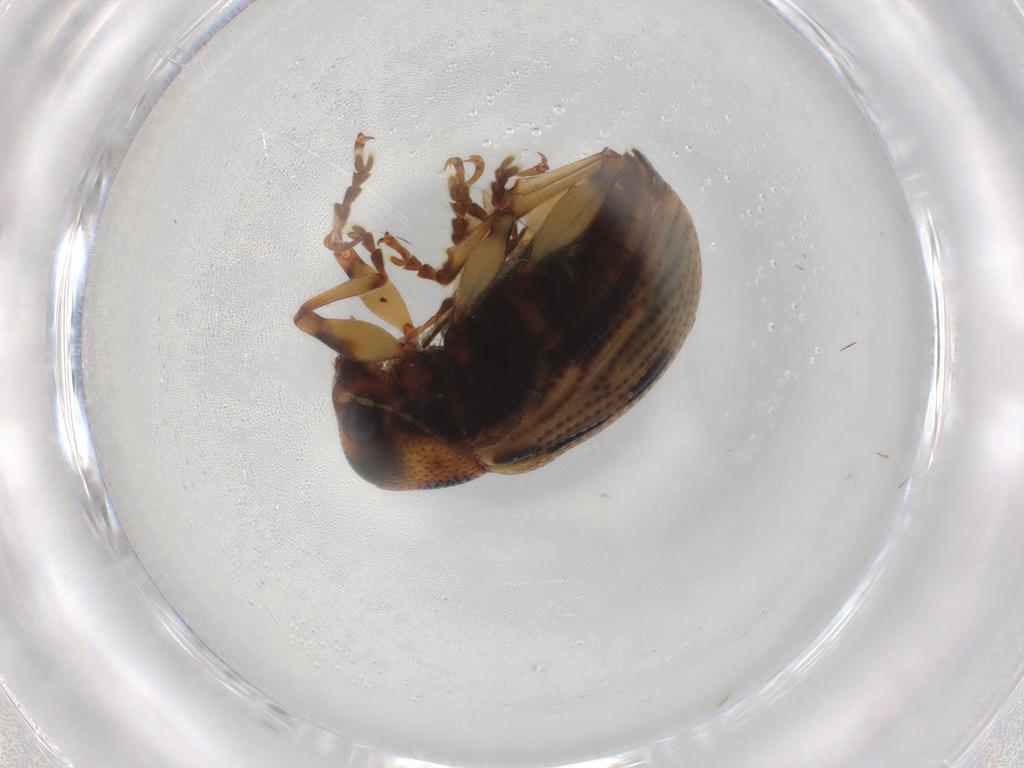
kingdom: Animalia
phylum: Arthropoda
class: Insecta
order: Coleoptera
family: Chrysomelidae
